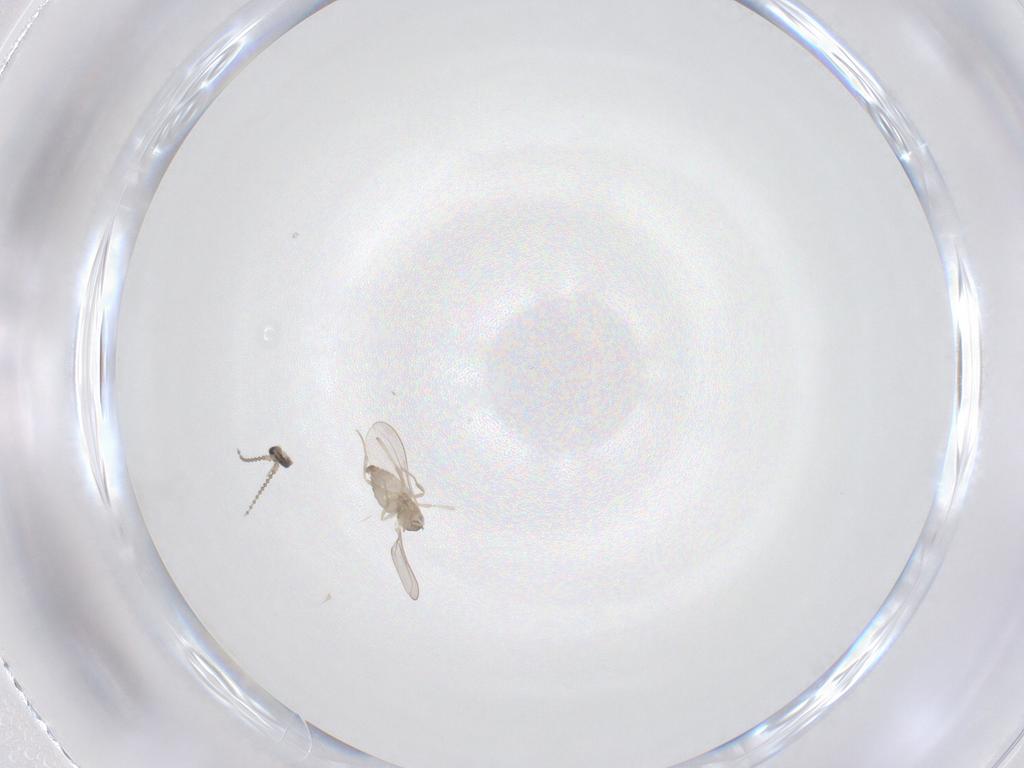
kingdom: Animalia
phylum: Arthropoda
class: Insecta
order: Diptera
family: Cecidomyiidae
